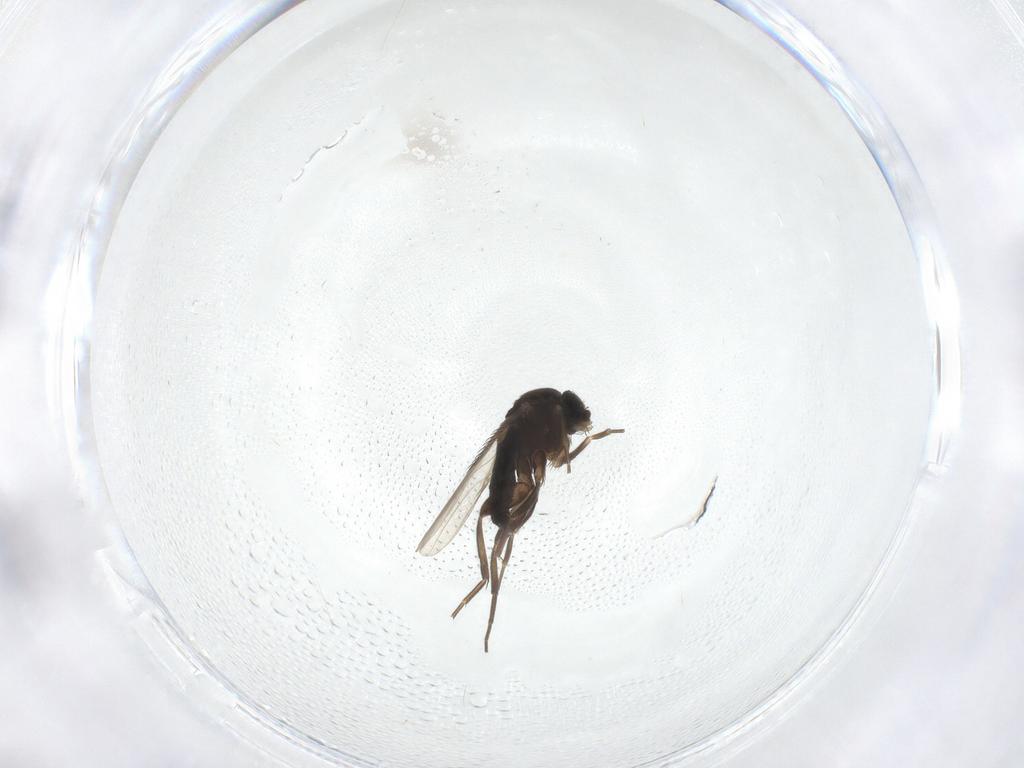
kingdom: Animalia
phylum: Arthropoda
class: Insecta
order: Diptera
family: Phoridae
